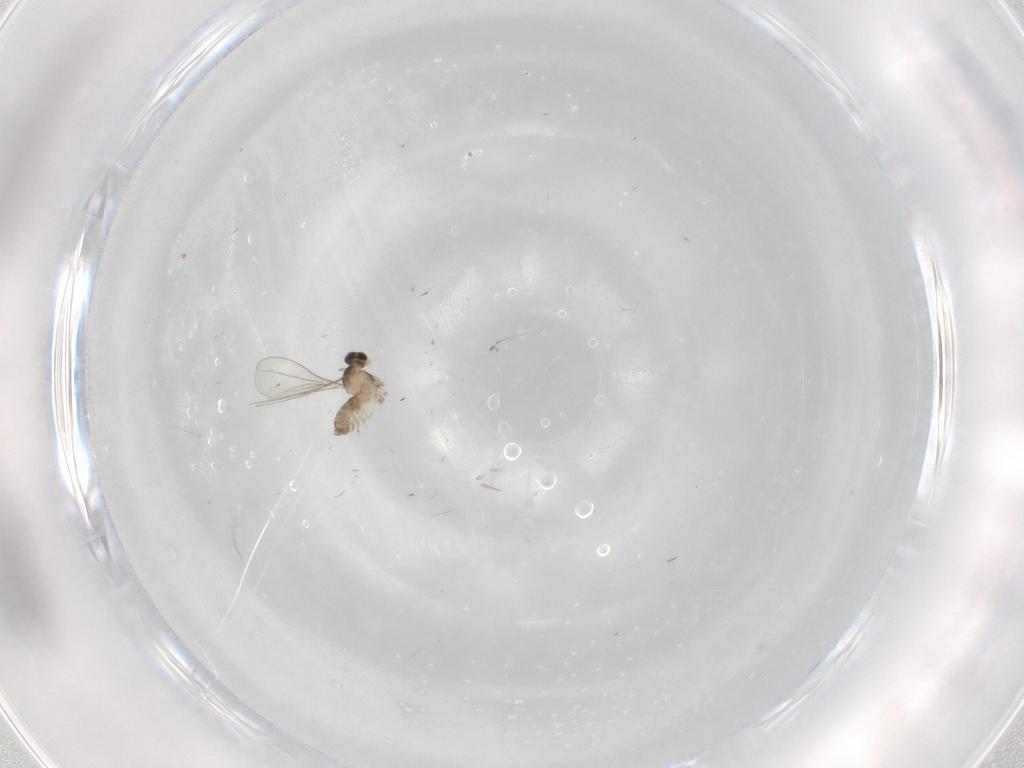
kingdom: Animalia
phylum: Arthropoda
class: Insecta
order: Diptera
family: Cecidomyiidae
